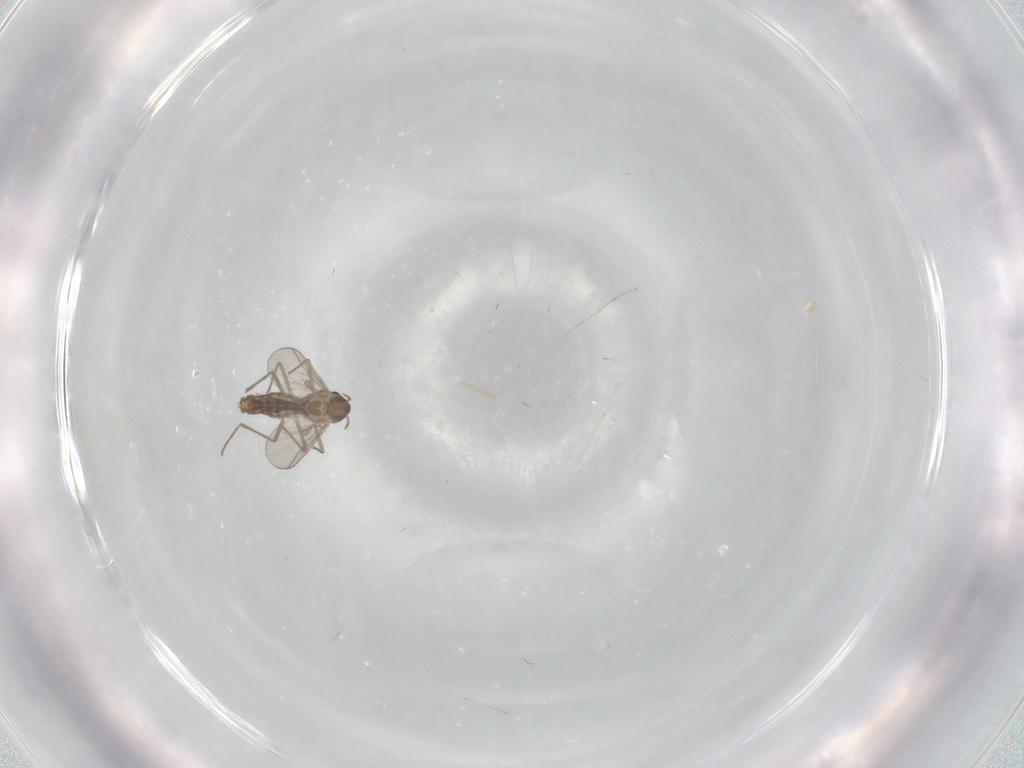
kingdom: Animalia
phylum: Arthropoda
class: Insecta
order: Diptera
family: Chironomidae
